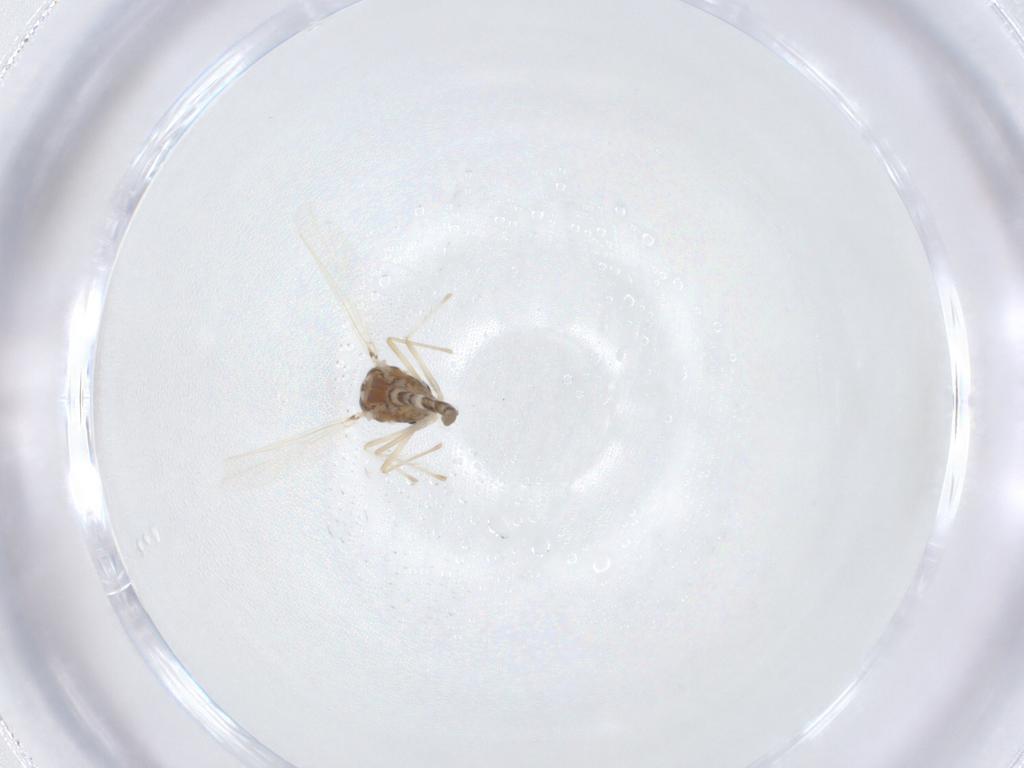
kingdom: Animalia
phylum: Arthropoda
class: Insecta
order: Diptera
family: Chironomidae
